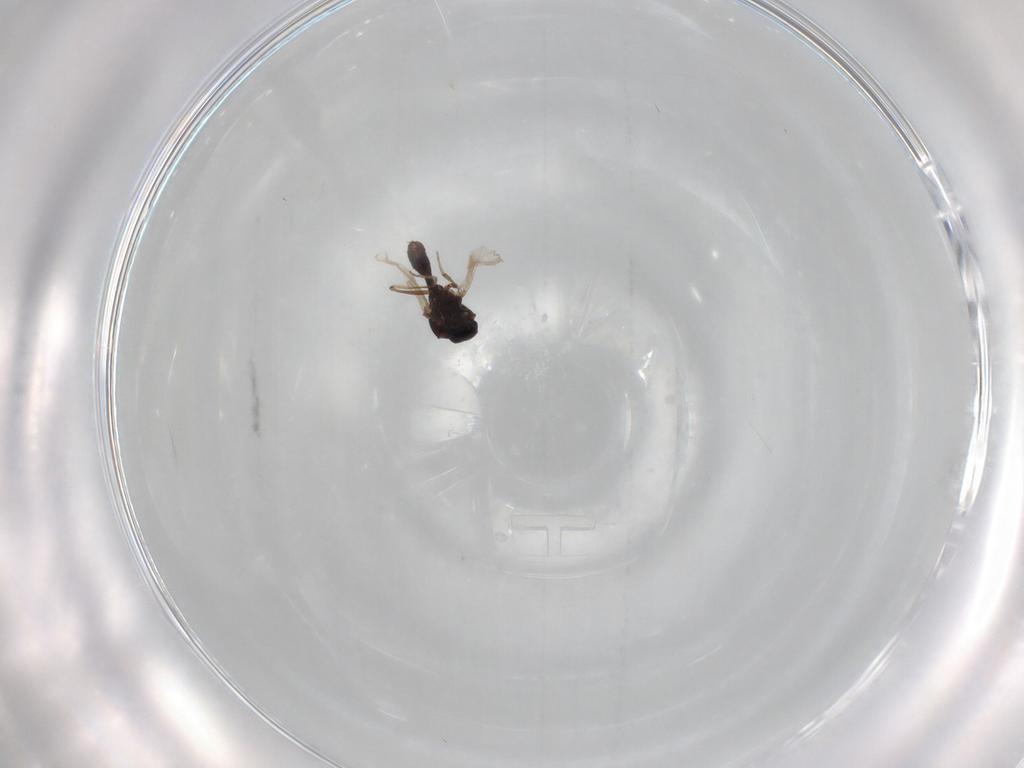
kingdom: Animalia
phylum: Arthropoda
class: Insecta
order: Diptera
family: Ceratopogonidae
